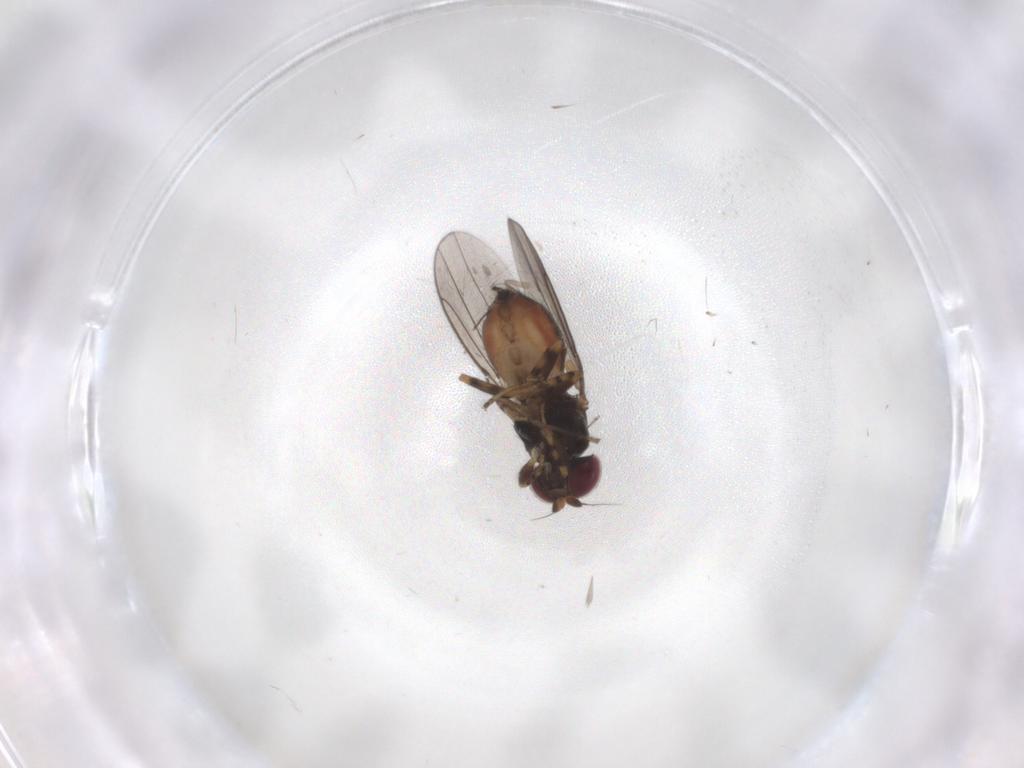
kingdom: Animalia
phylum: Arthropoda
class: Insecta
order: Diptera
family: Chloropidae
